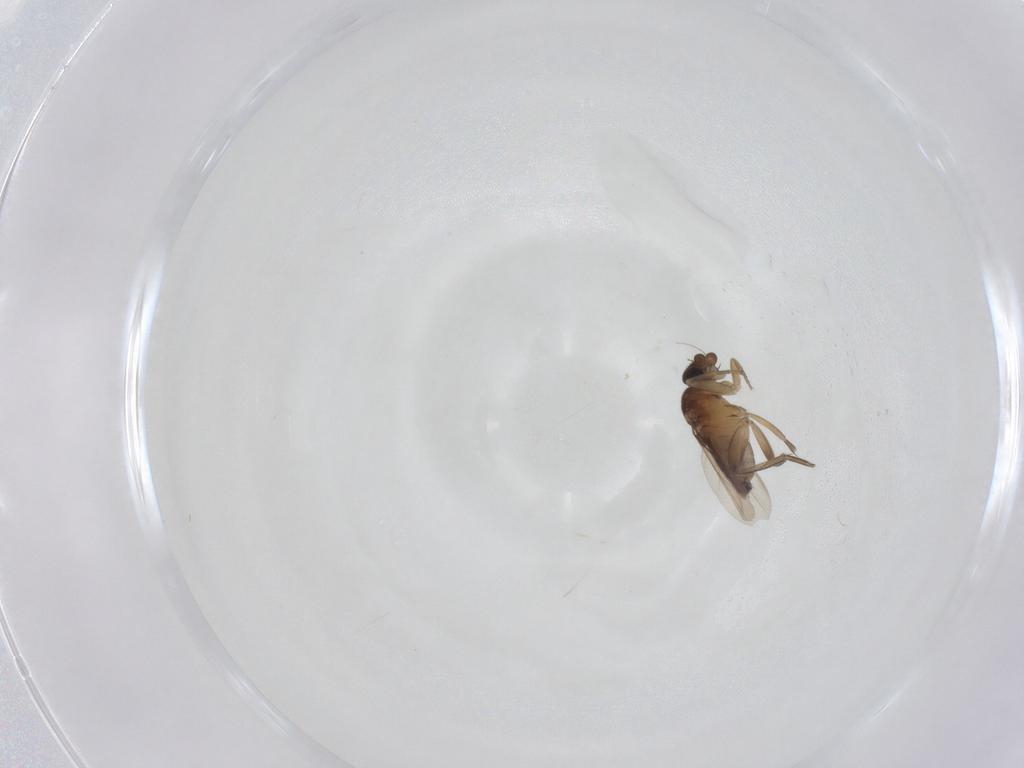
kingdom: Animalia
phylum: Arthropoda
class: Insecta
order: Diptera
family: Phoridae
